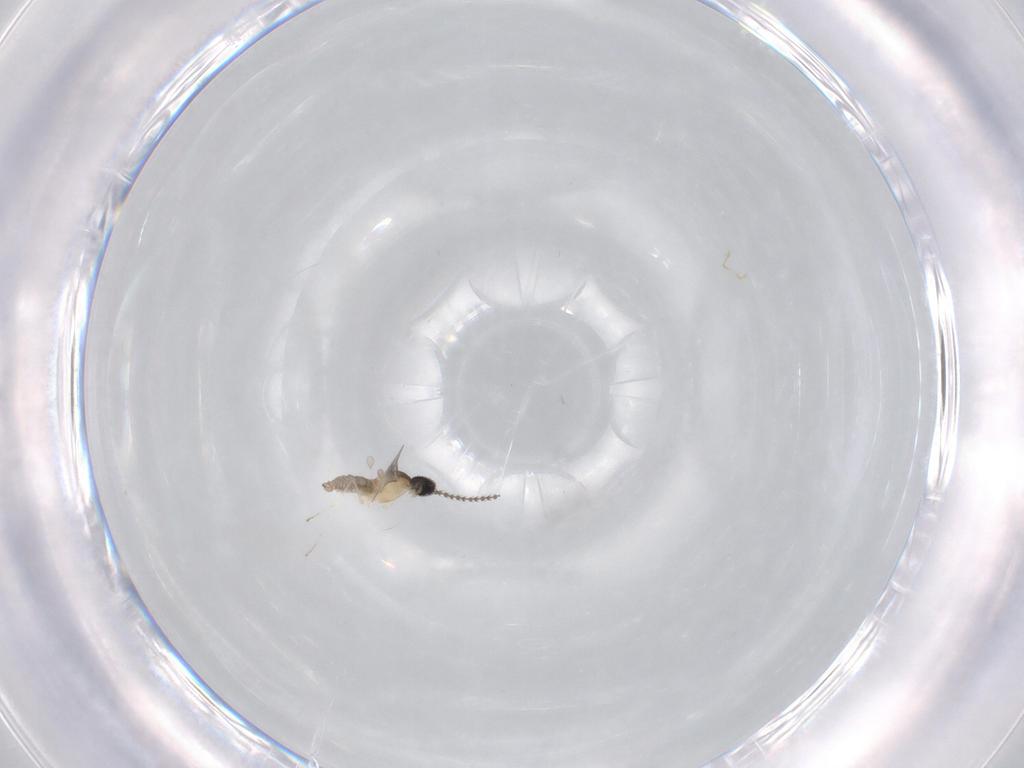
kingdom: Animalia
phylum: Arthropoda
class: Insecta
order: Diptera
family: Cecidomyiidae
